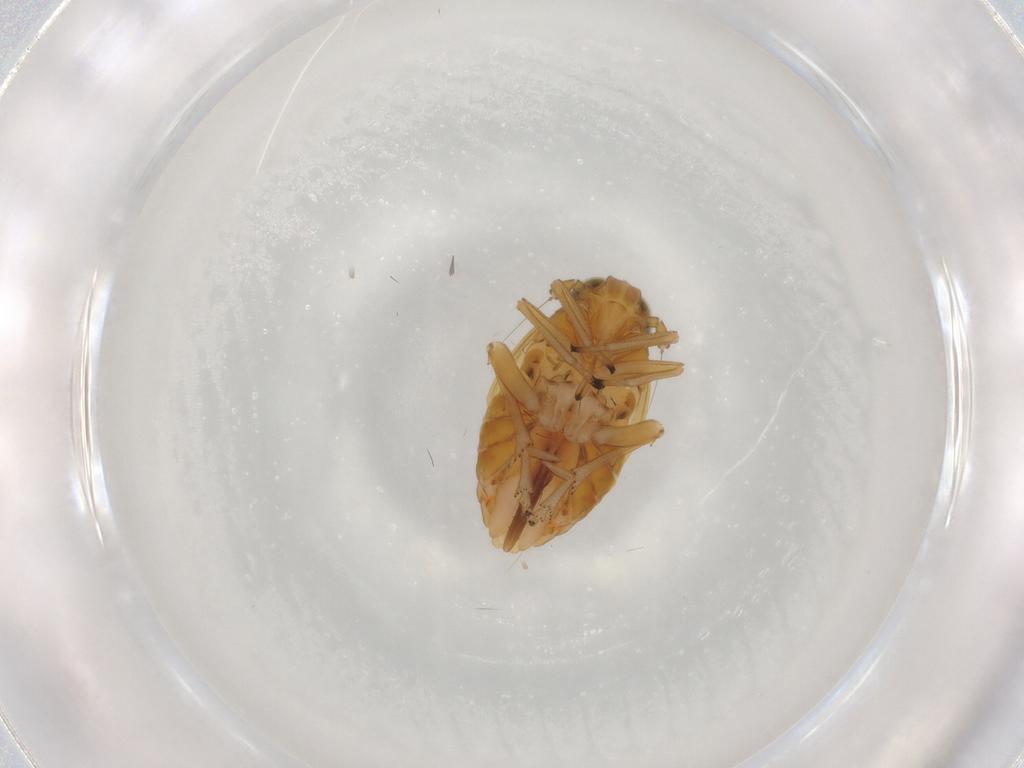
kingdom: Animalia
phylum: Arthropoda
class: Insecta
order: Hemiptera
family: Delphacidae
